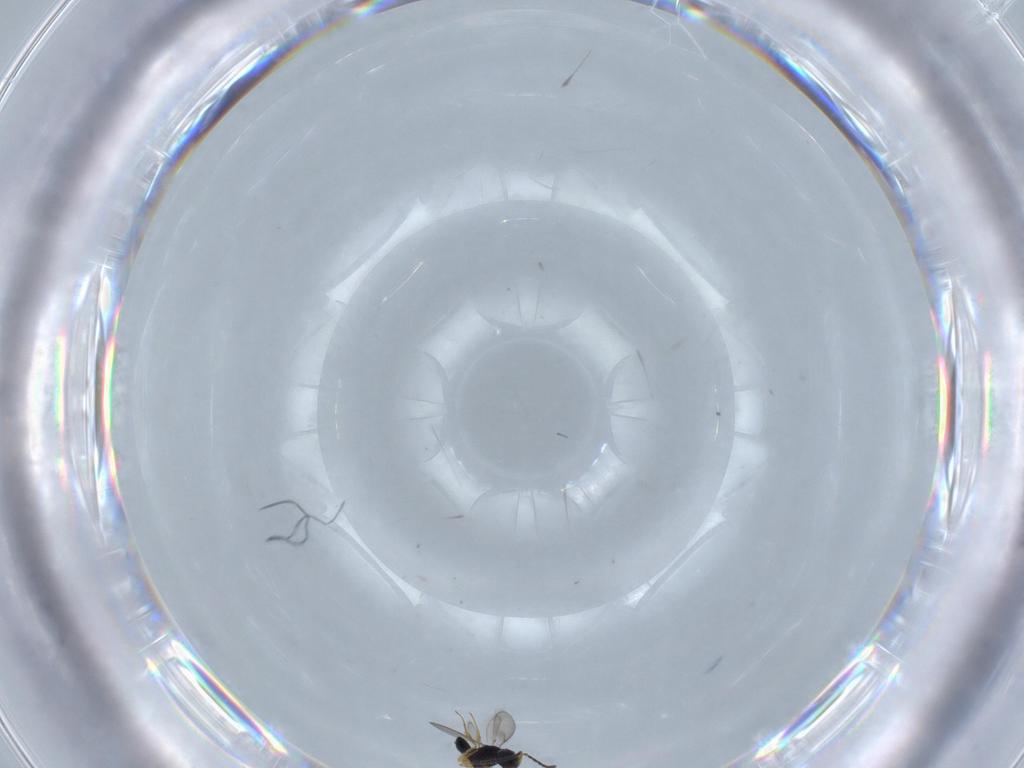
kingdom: Animalia
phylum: Arthropoda
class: Insecta
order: Hymenoptera
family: Scelionidae
